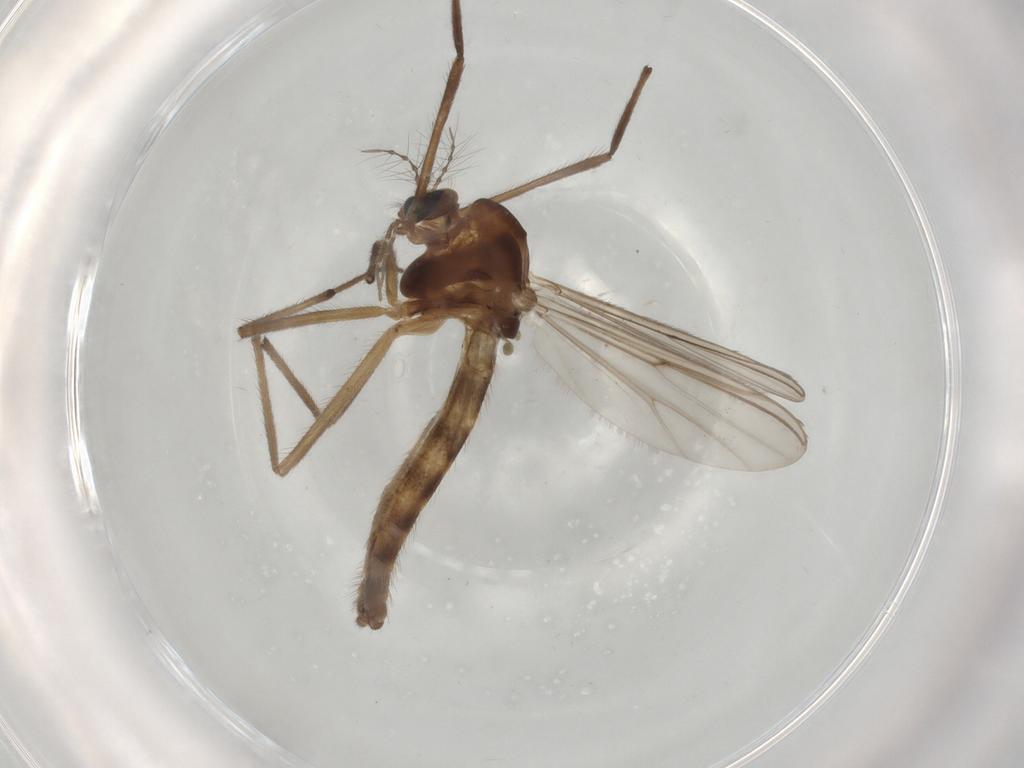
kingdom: Animalia
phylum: Arthropoda
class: Insecta
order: Diptera
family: Chironomidae
